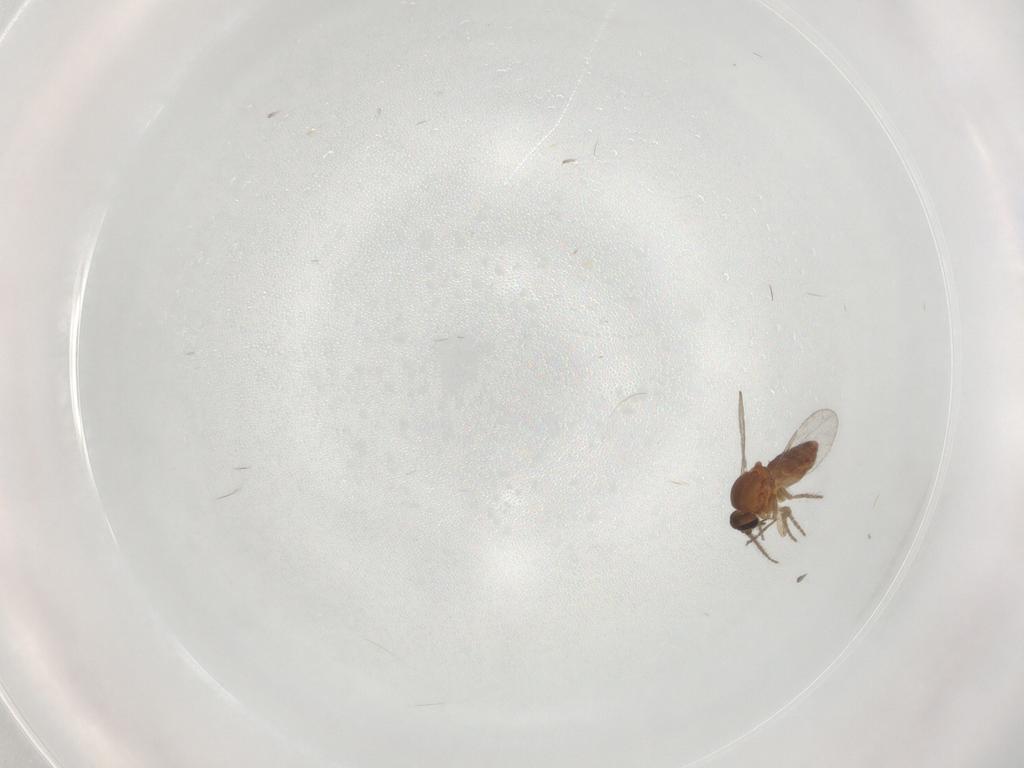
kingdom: Animalia
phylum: Arthropoda
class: Insecta
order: Diptera
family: Ceratopogonidae
